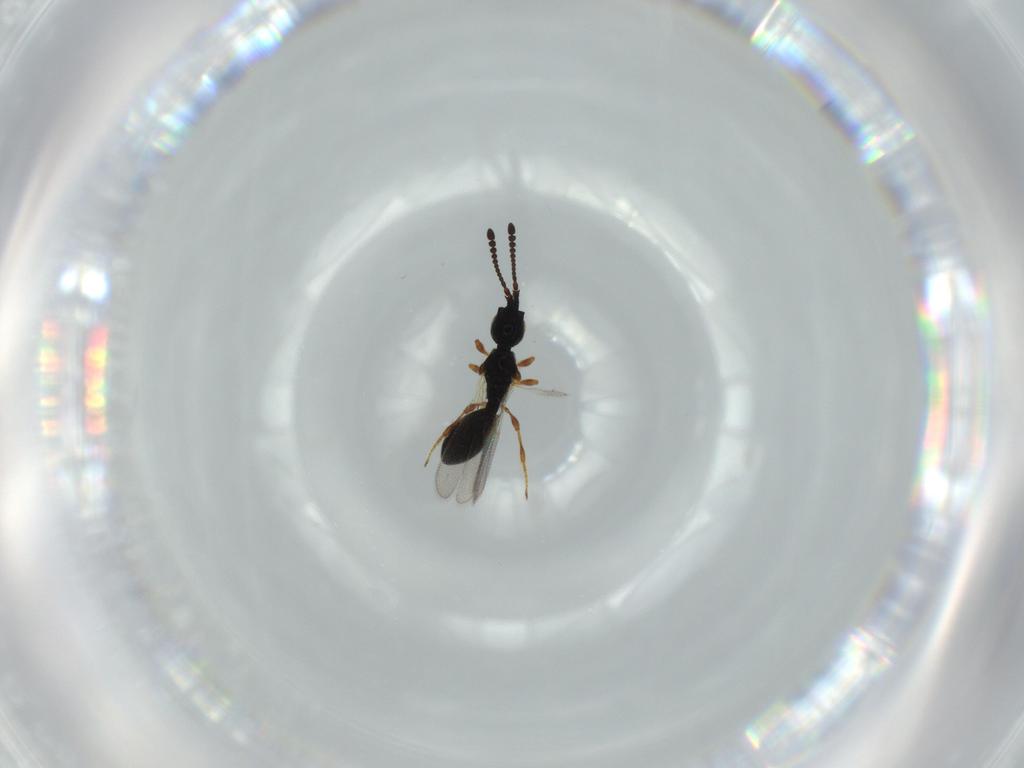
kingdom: Animalia
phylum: Arthropoda
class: Insecta
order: Hymenoptera
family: Diapriidae
